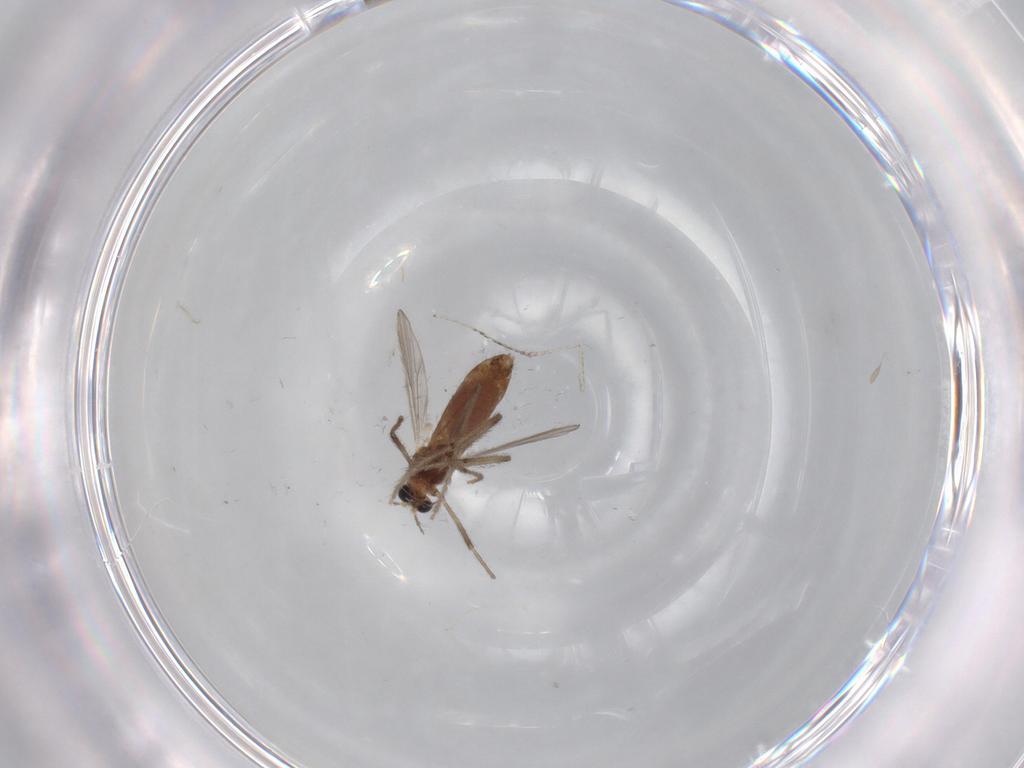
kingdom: Animalia
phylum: Arthropoda
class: Insecta
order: Diptera
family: Chironomidae
